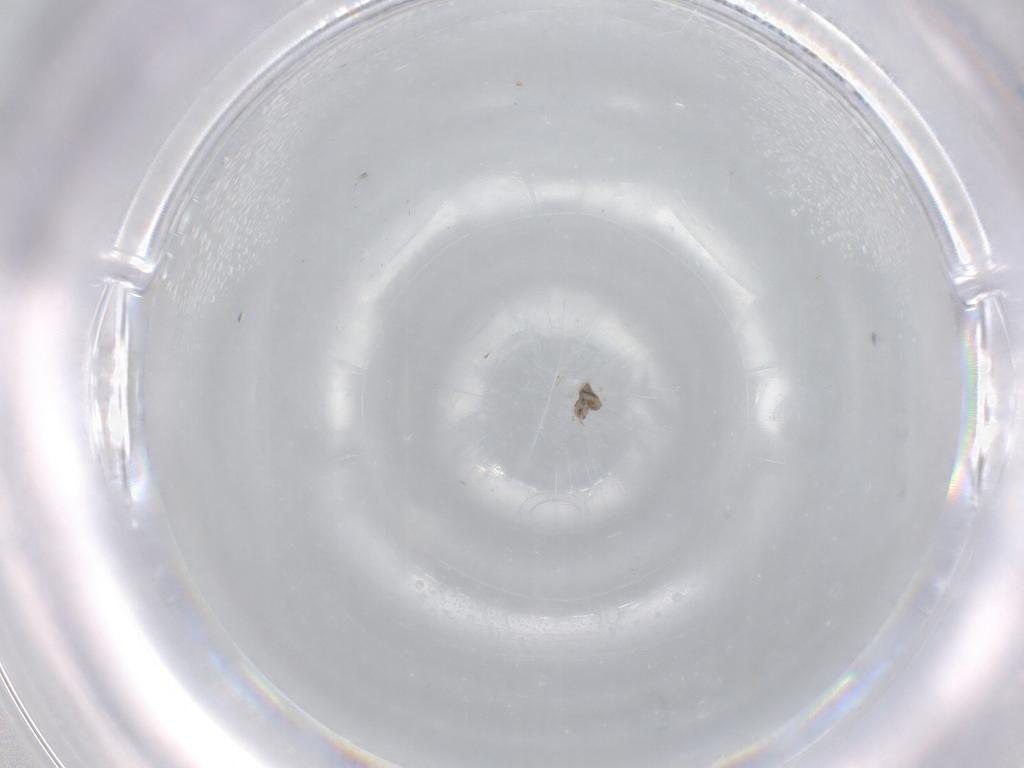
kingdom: Animalia
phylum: Arthropoda
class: Insecta
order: Diptera
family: Cecidomyiidae
